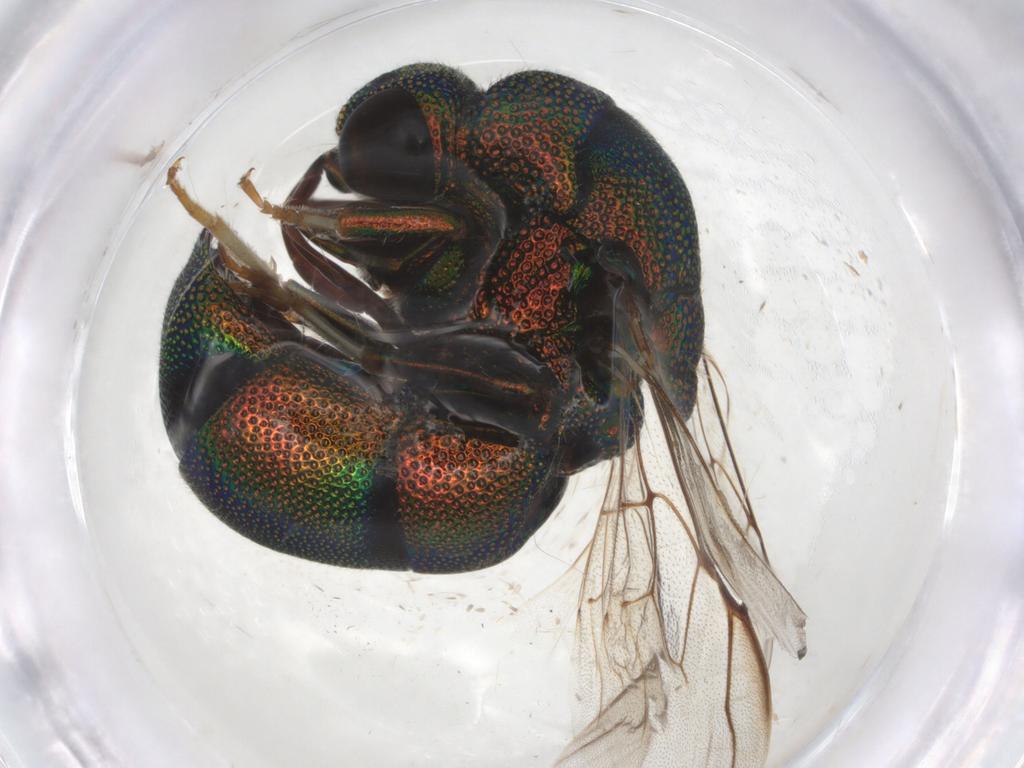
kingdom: Animalia
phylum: Arthropoda
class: Insecta
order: Hymenoptera
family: Chrysididae
